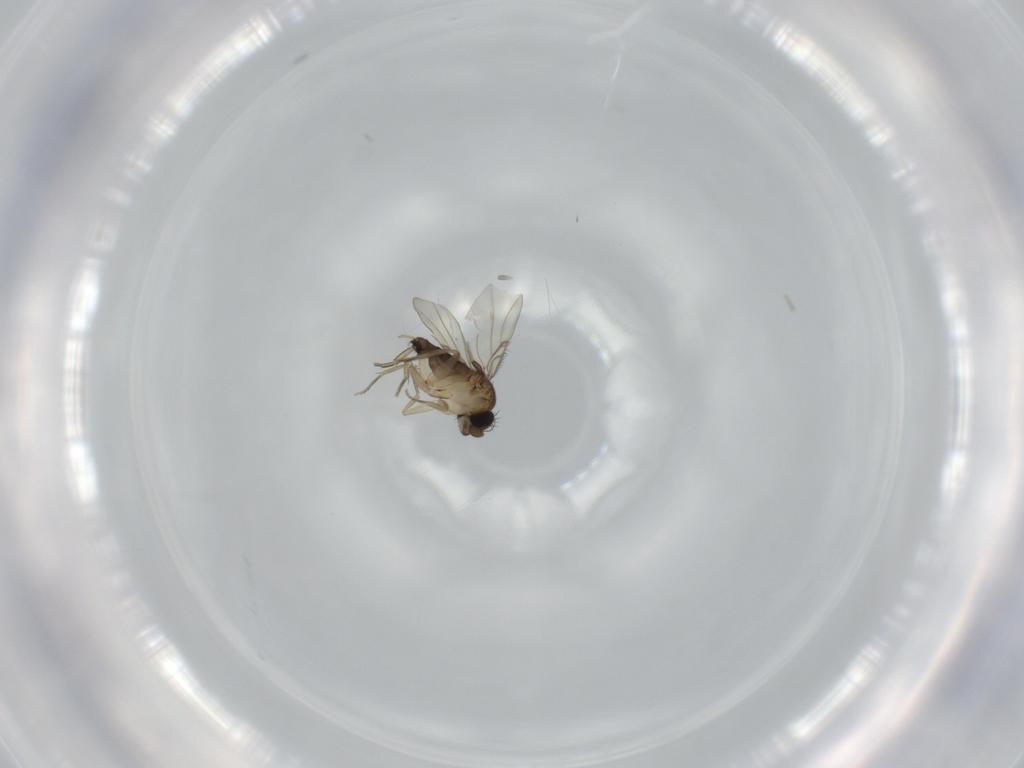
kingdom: Animalia
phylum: Arthropoda
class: Insecta
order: Diptera
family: Phoridae
